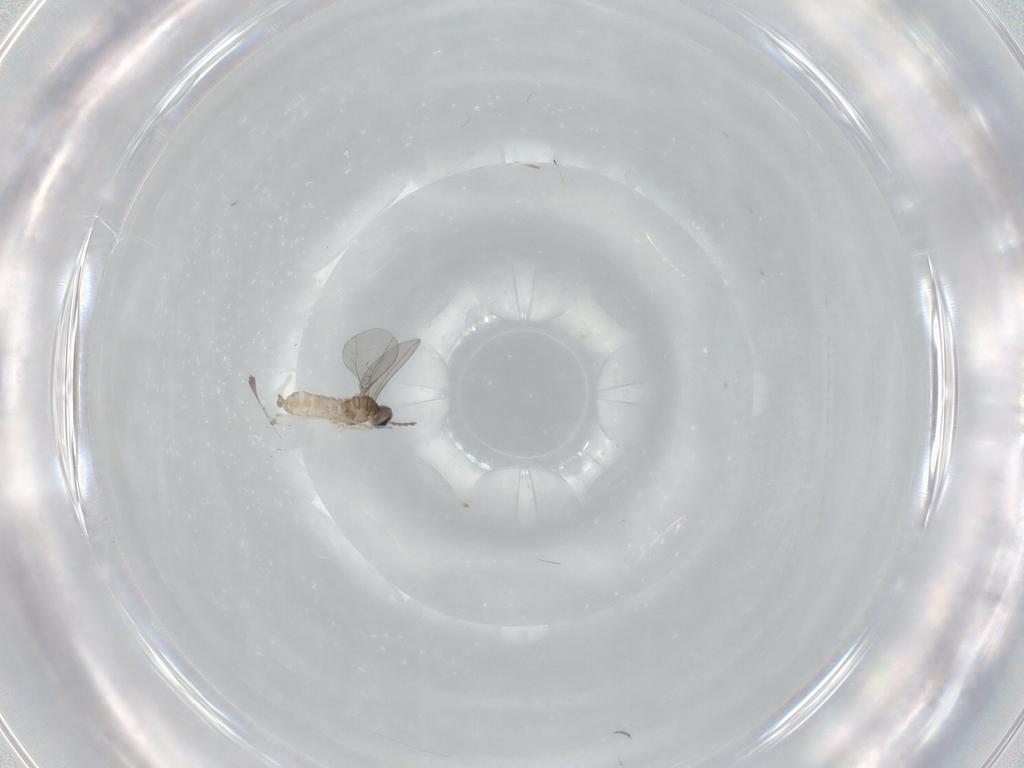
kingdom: Animalia
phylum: Arthropoda
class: Insecta
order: Diptera
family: Cecidomyiidae
